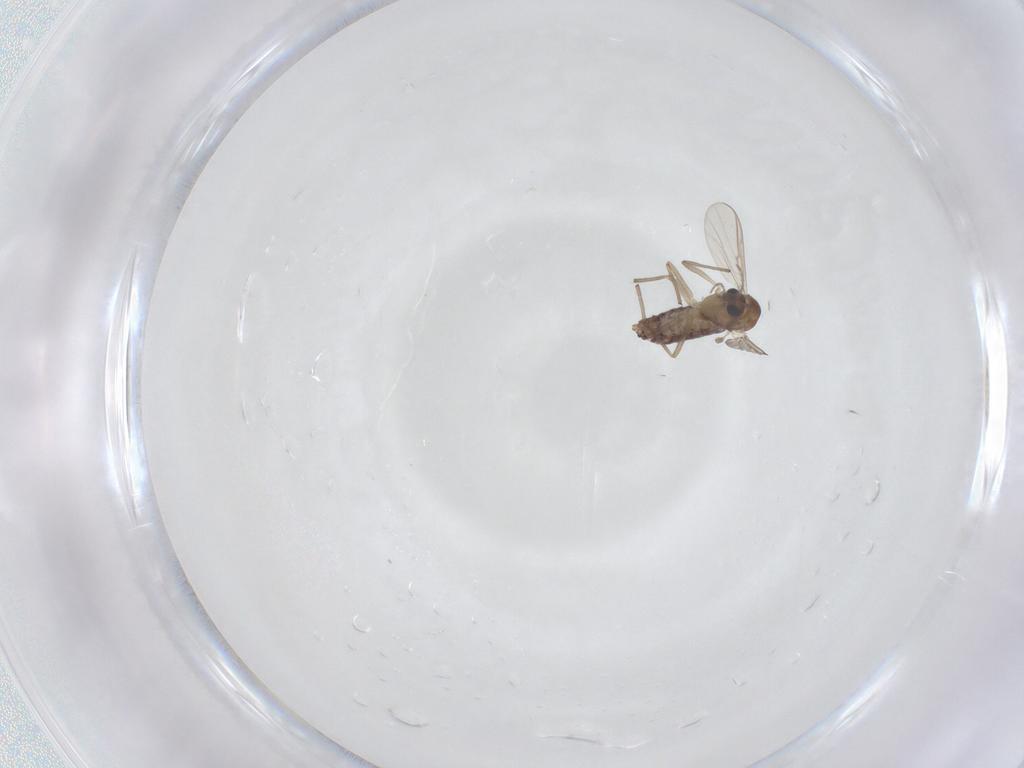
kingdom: Animalia
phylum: Arthropoda
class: Insecta
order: Diptera
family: Chironomidae
